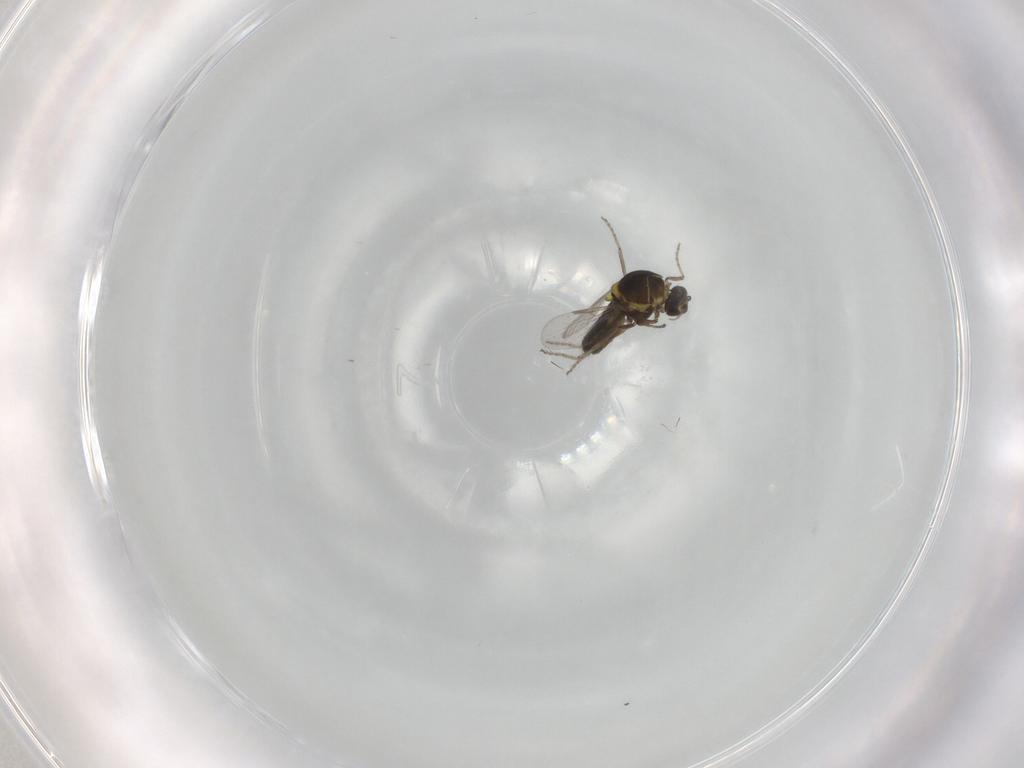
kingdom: Animalia
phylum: Arthropoda
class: Insecta
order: Diptera
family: Ceratopogonidae
